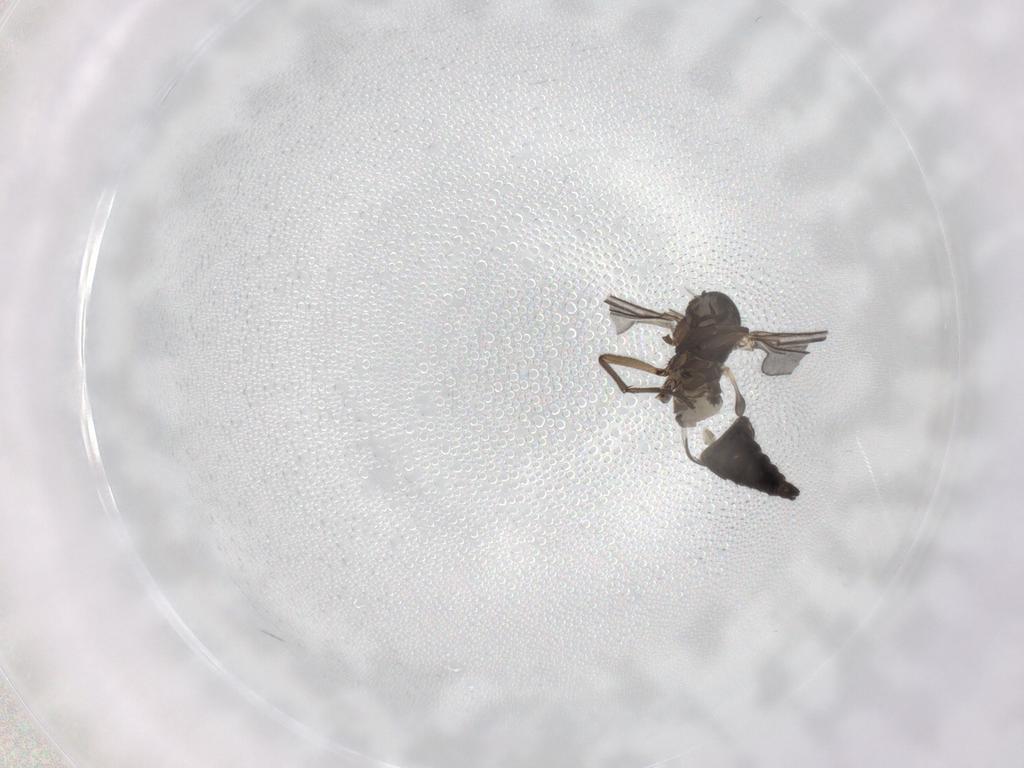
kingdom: Animalia
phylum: Arthropoda
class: Insecta
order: Diptera
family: Sciaridae
